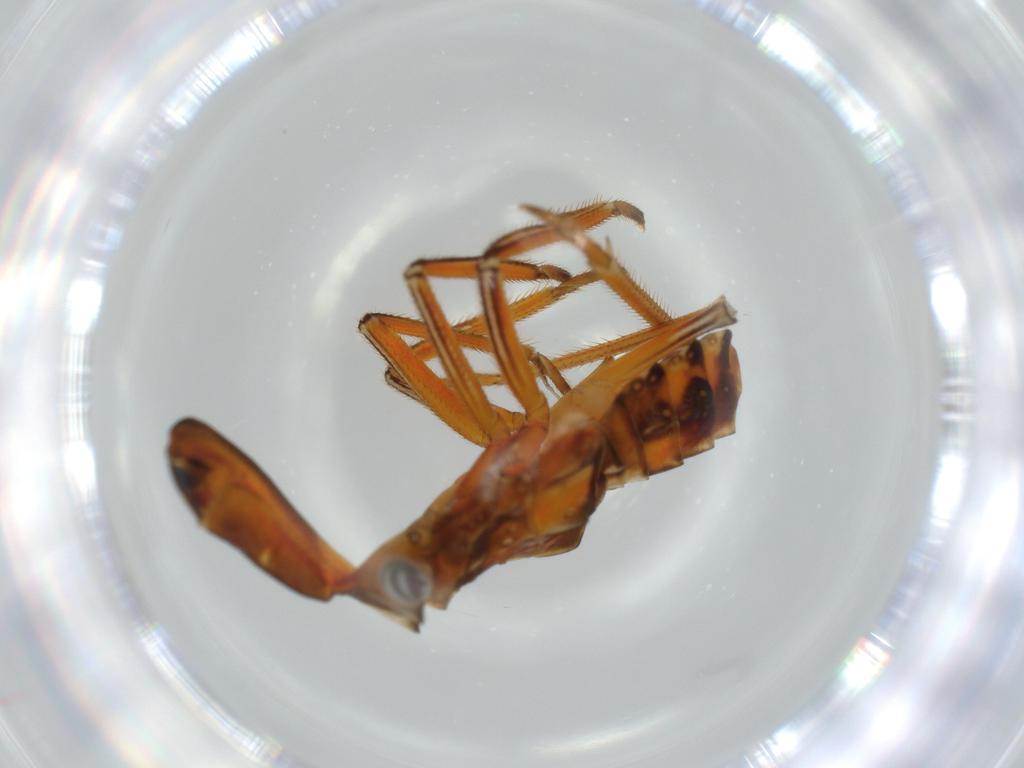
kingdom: Animalia
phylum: Arthropoda
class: Insecta
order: Hemiptera
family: Fulgoridae
